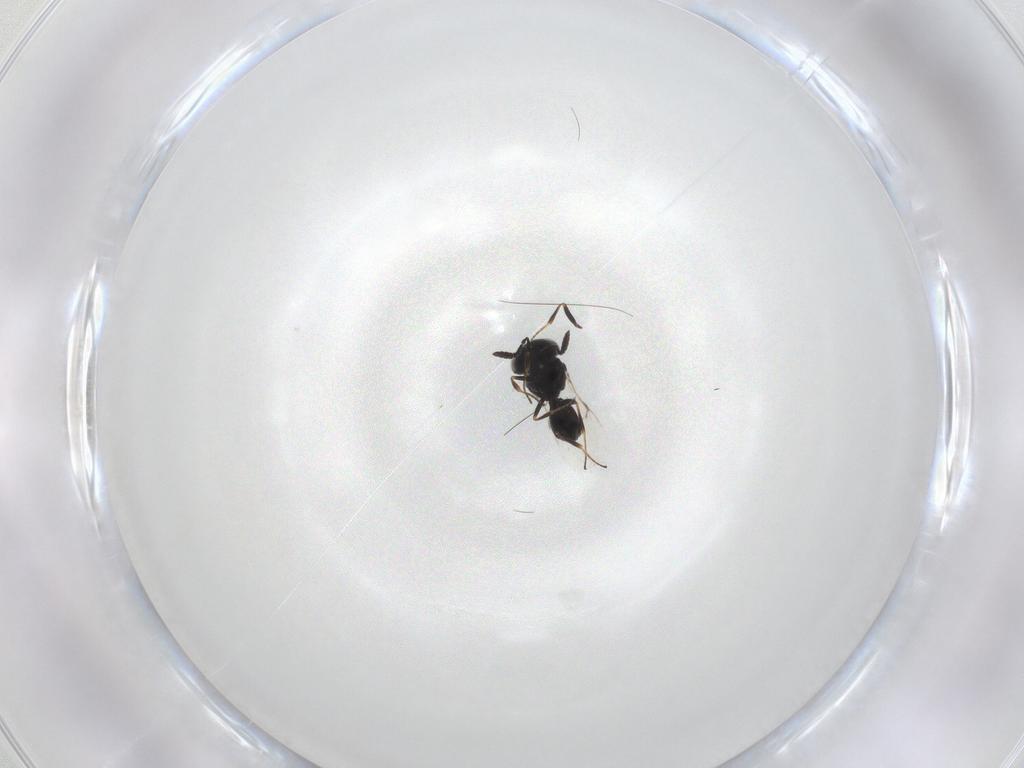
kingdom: Animalia
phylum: Arthropoda
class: Insecta
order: Hymenoptera
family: Scelionidae
